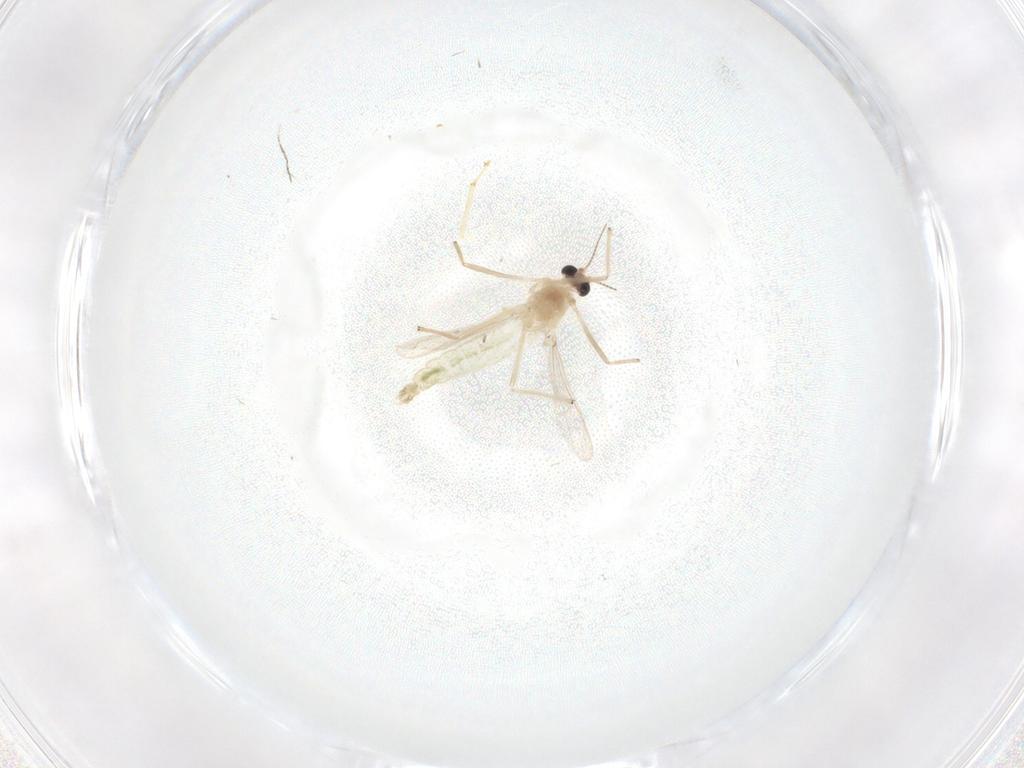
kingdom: Animalia
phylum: Arthropoda
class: Insecta
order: Diptera
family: Chironomidae
